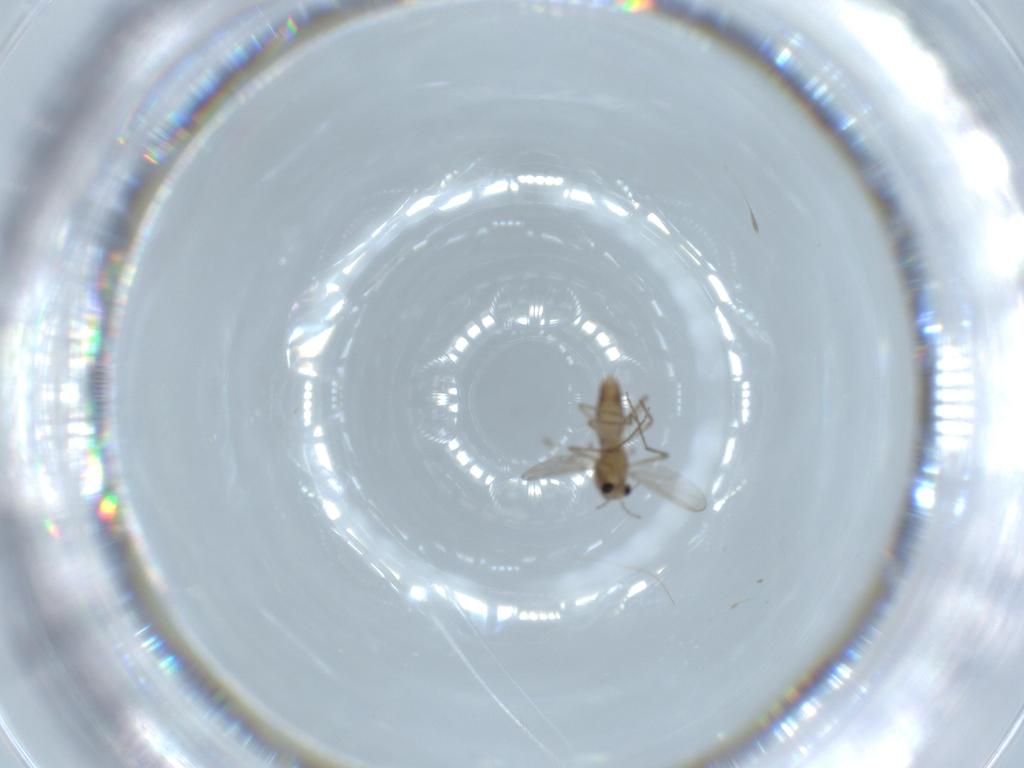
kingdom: Animalia
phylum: Arthropoda
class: Insecta
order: Diptera
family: Chironomidae
